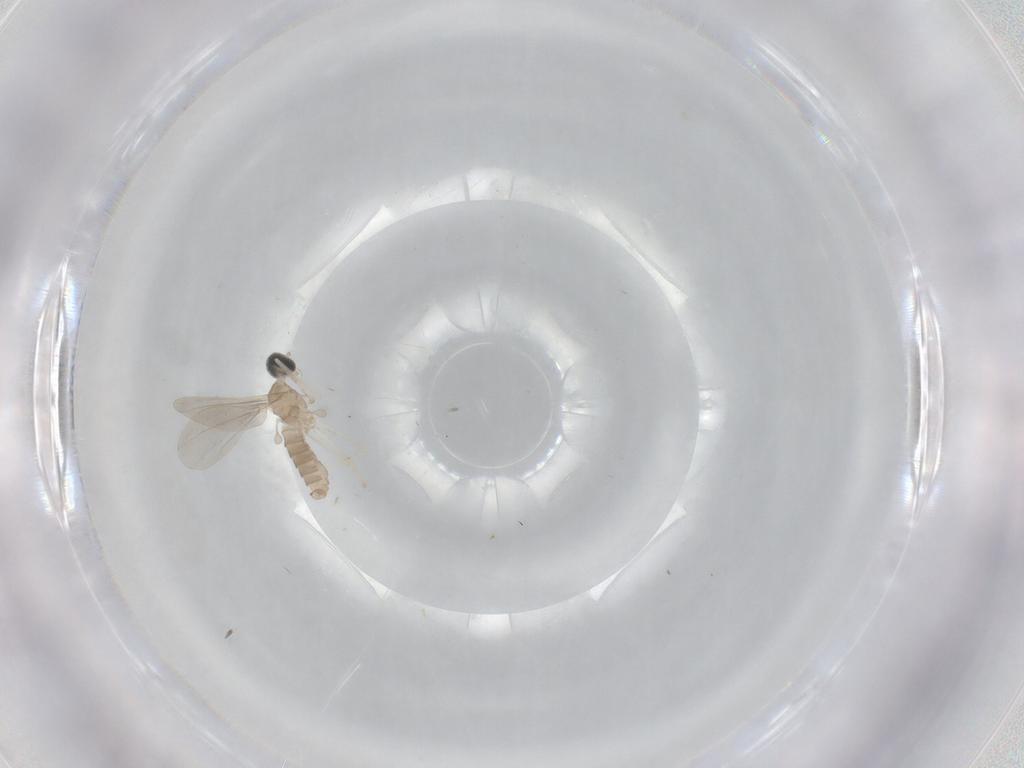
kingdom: Animalia
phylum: Arthropoda
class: Insecta
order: Diptera
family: Cecidomyiidae
